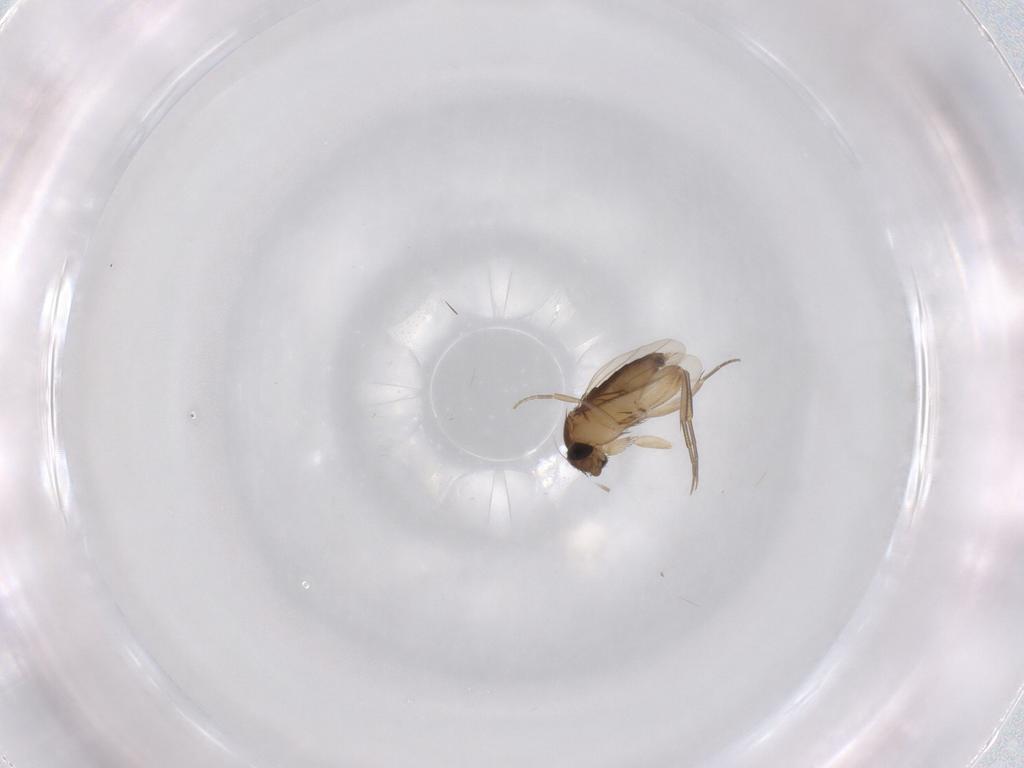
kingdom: Animalia
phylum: Arthropoda
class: Insecta
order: Diptera
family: Phoridae
